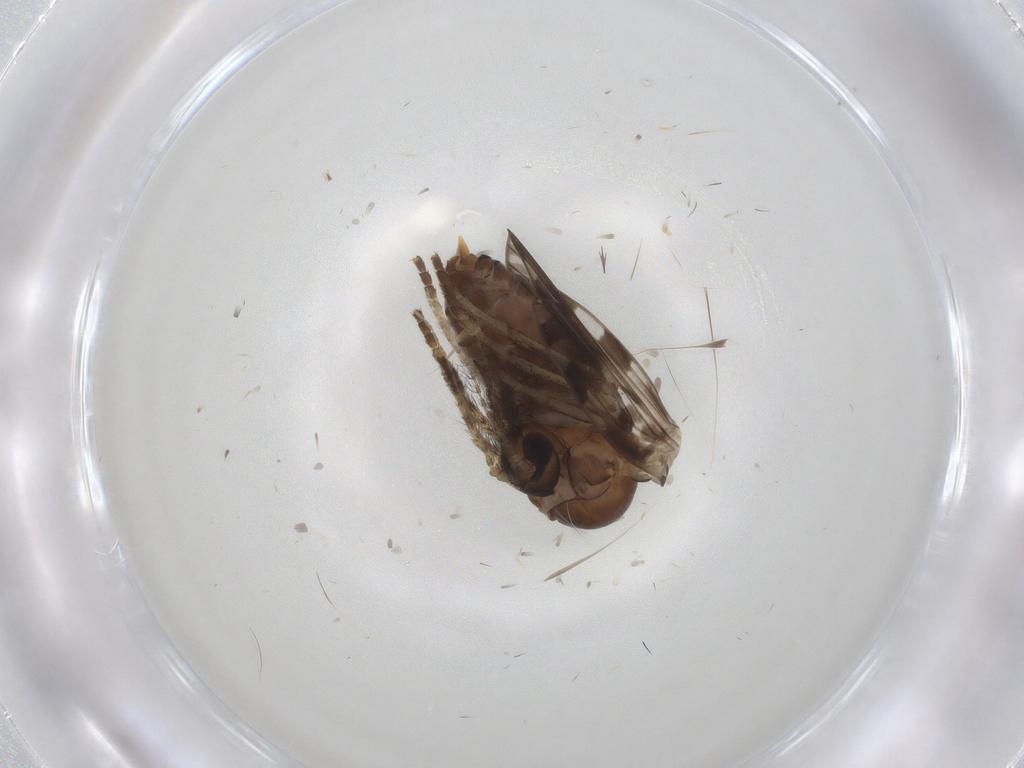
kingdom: Animalia
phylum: Arthropoda
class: Insecta
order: Diptera
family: Psychodidae
